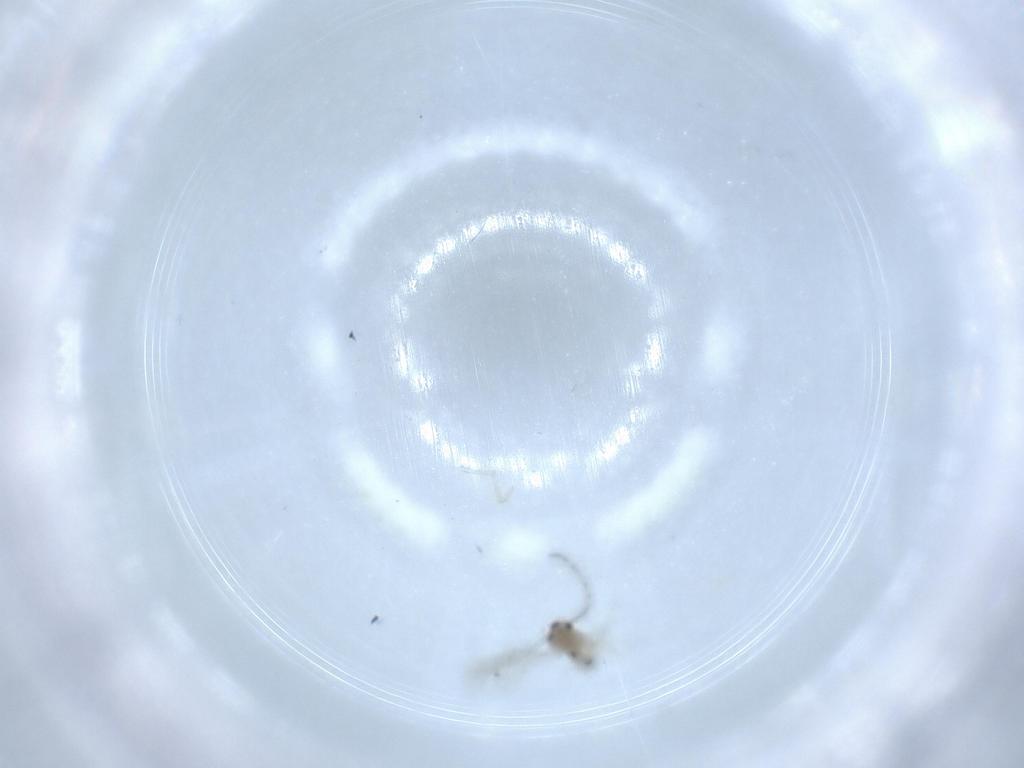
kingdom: Animalia
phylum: Arthropoda
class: Insecta
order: Diptera
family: Cecidomyiidae
